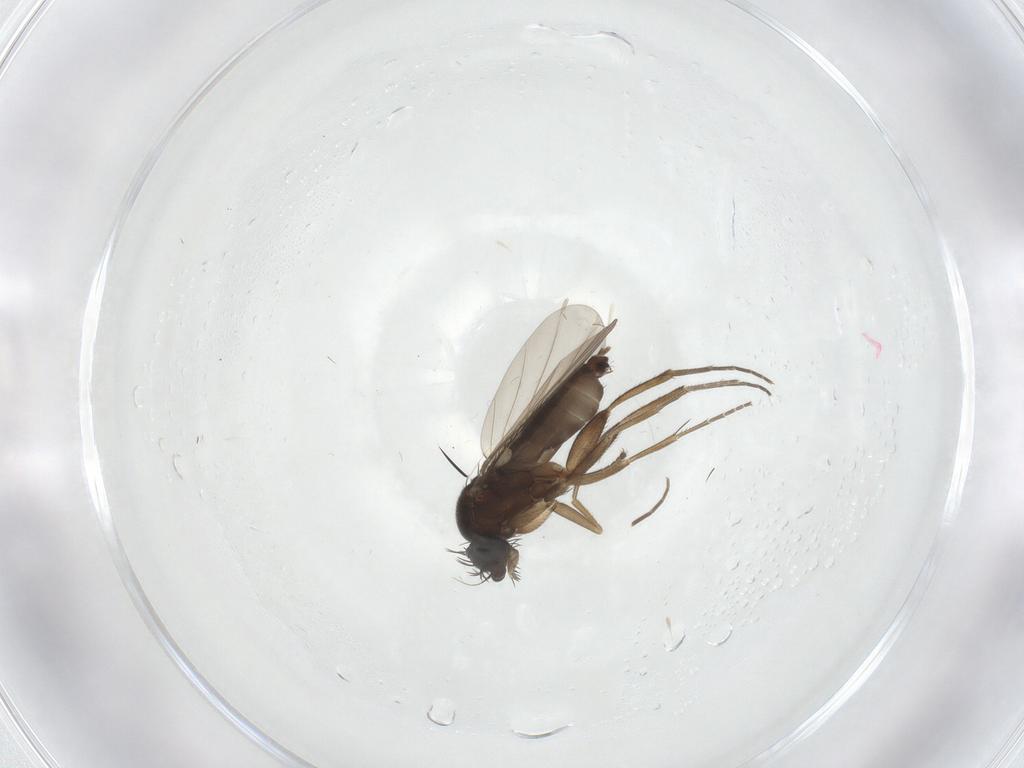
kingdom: Animalia
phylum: Arthropoda
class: Insecta
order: Diptera
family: Phoridae
